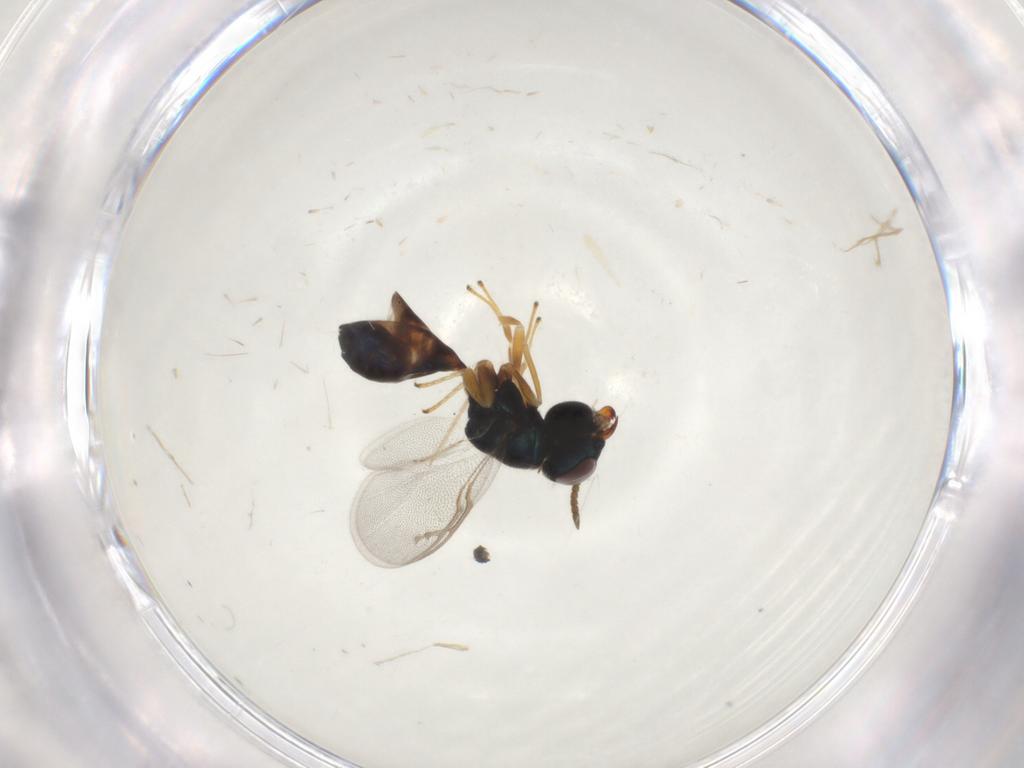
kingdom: Animalia
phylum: Arthropoda
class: Insecta
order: Hymenoptera
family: Pteromalidae
